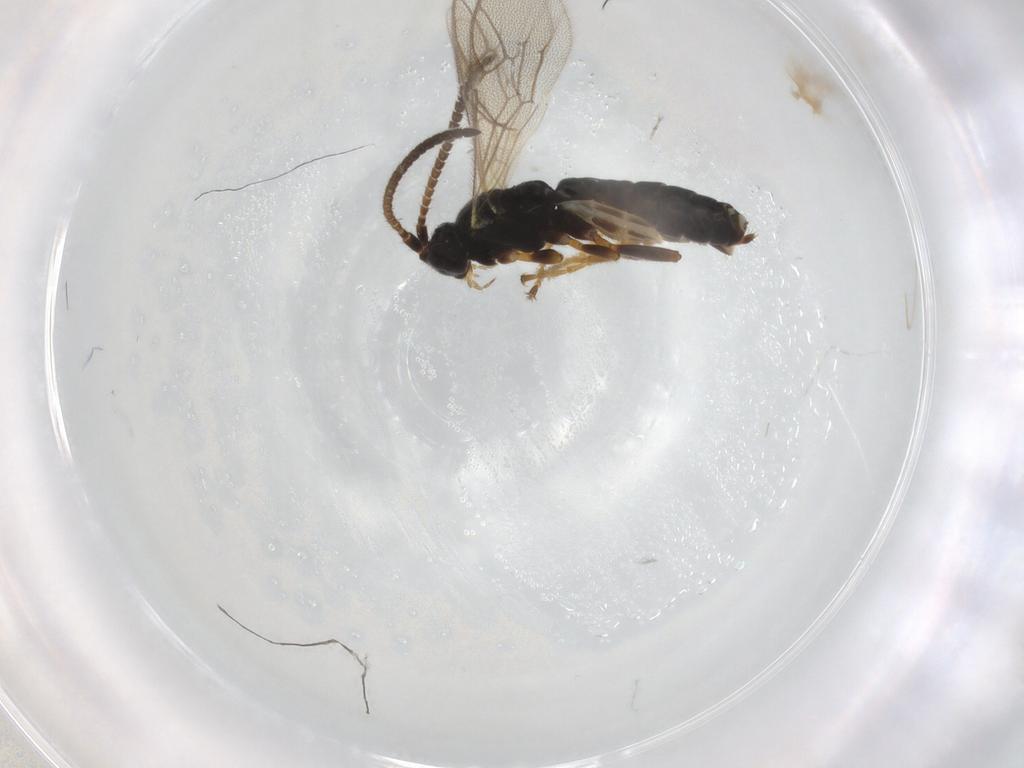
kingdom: Animalia
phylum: Arthropoda
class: Insecta
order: Hymenoptera
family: Ichneumonidae
